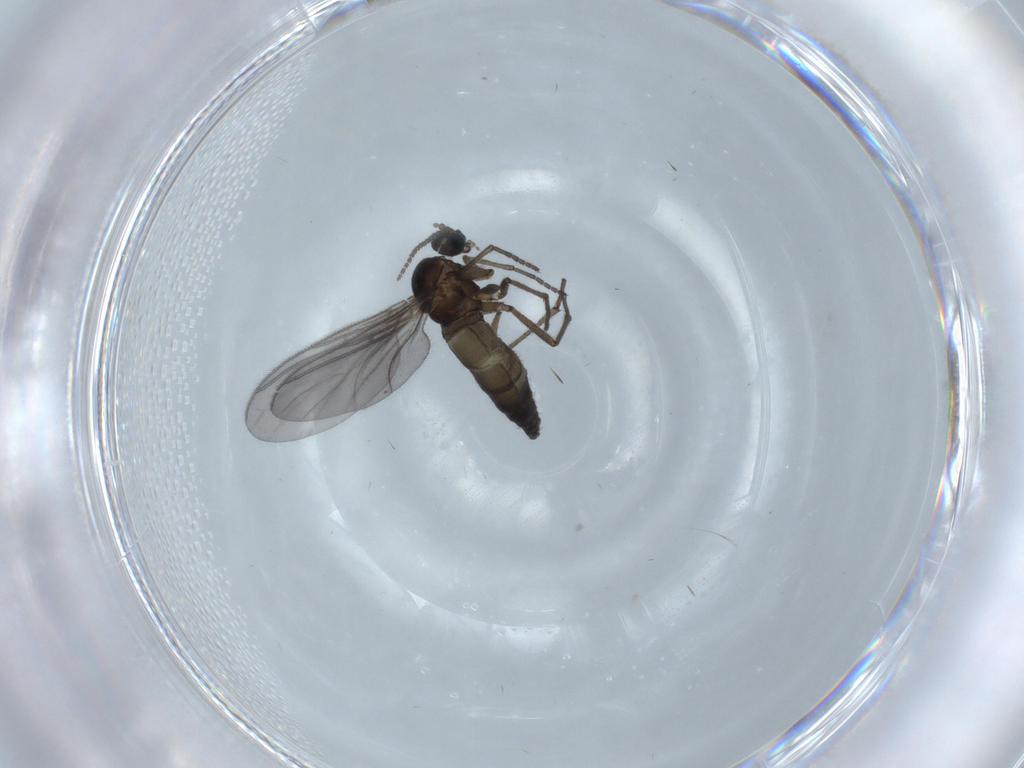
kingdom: Animalia
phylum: Arthropoda
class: Insecta
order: Diptera
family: Sciaridae
